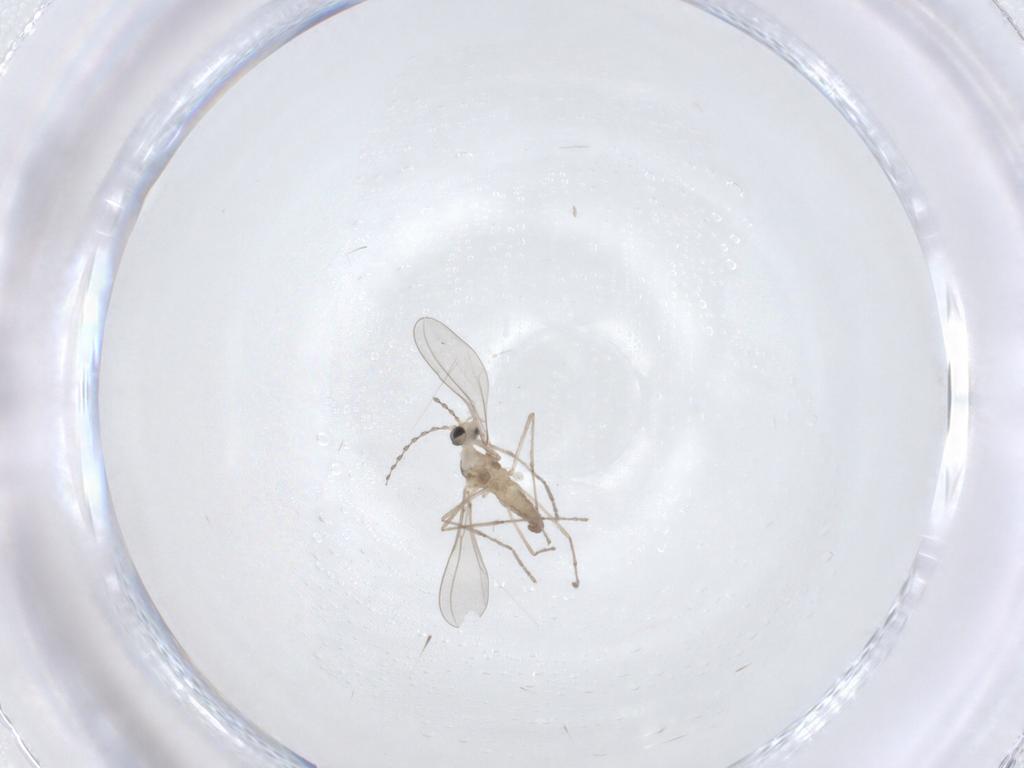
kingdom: Animalia
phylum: Arthropoda
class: Insecta
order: Diptera
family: Cecidomyiidae
